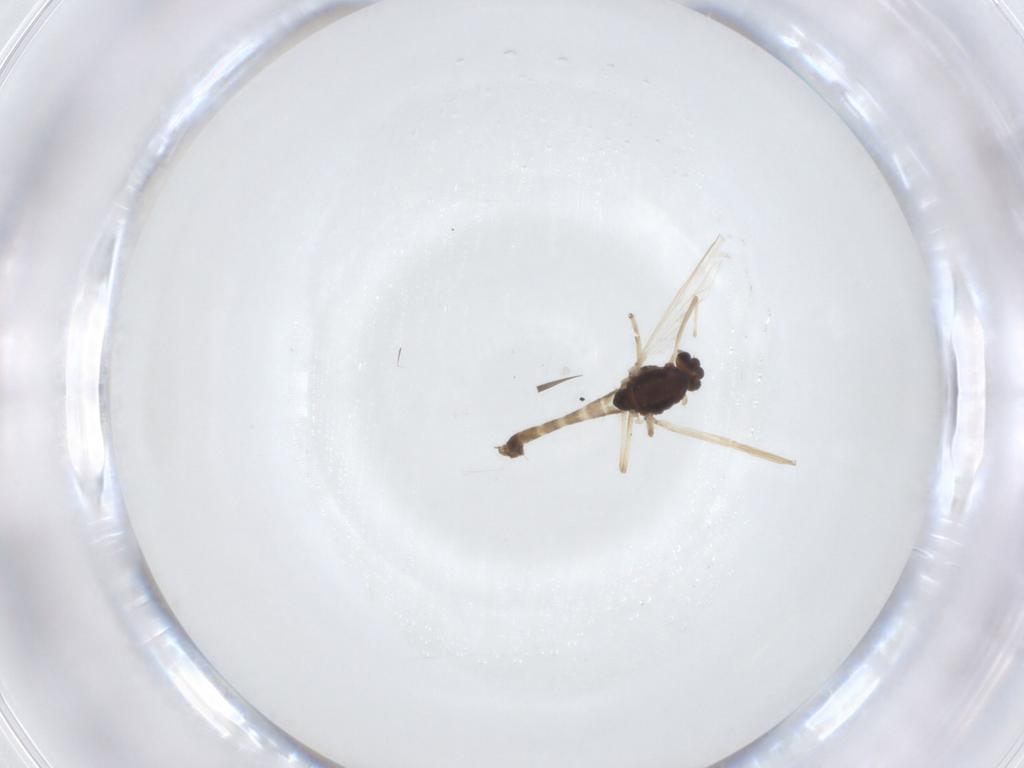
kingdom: Animalia
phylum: Arthropoda
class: Insecta
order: Diptera
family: Chironomidae
